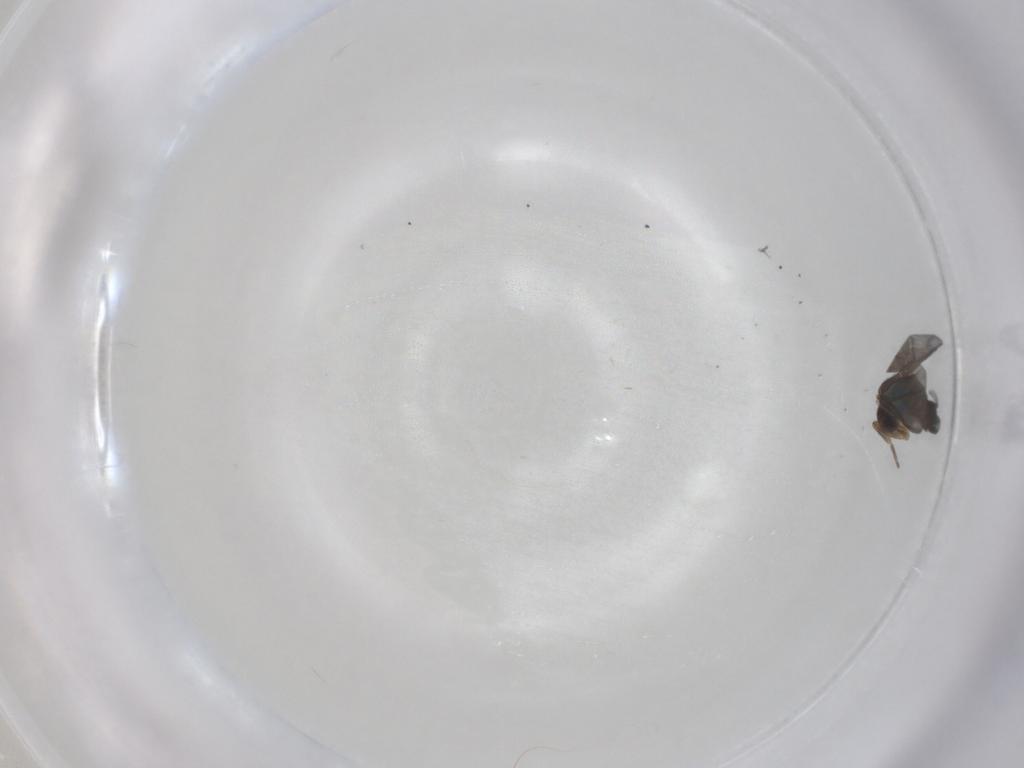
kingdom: Animalia
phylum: Arthropoda
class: Insecta
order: Diptera
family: Chironomidae
